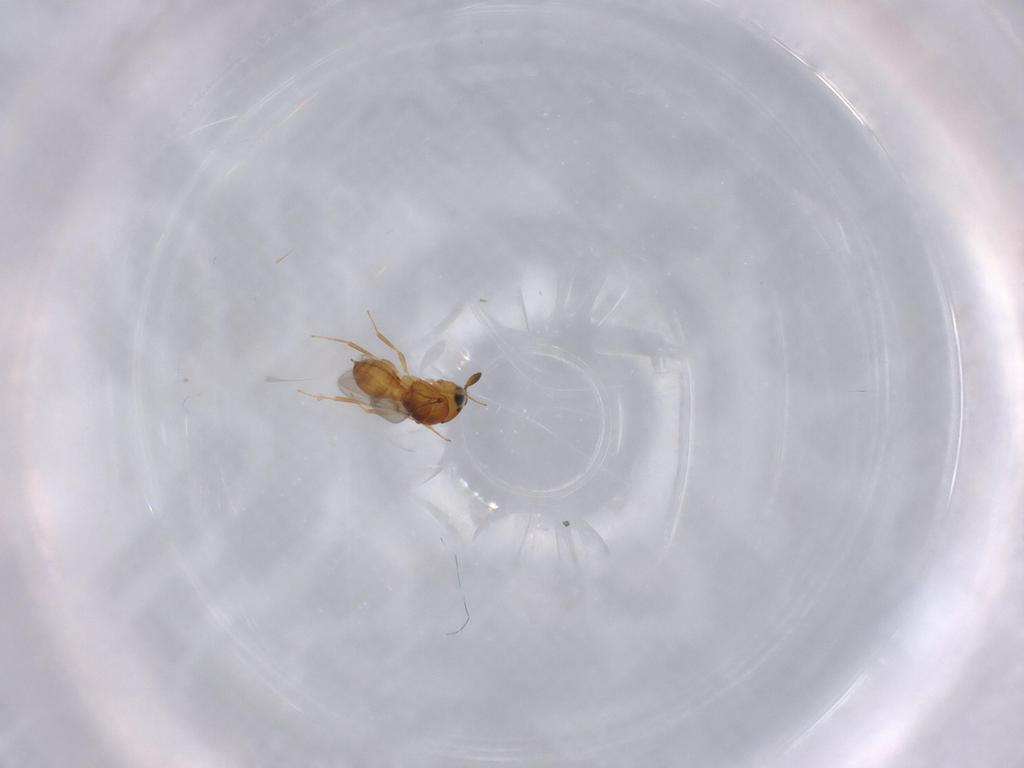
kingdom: Animalia
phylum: Arthropoda
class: Insecta
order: Hymenoptera
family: Scelionidae
